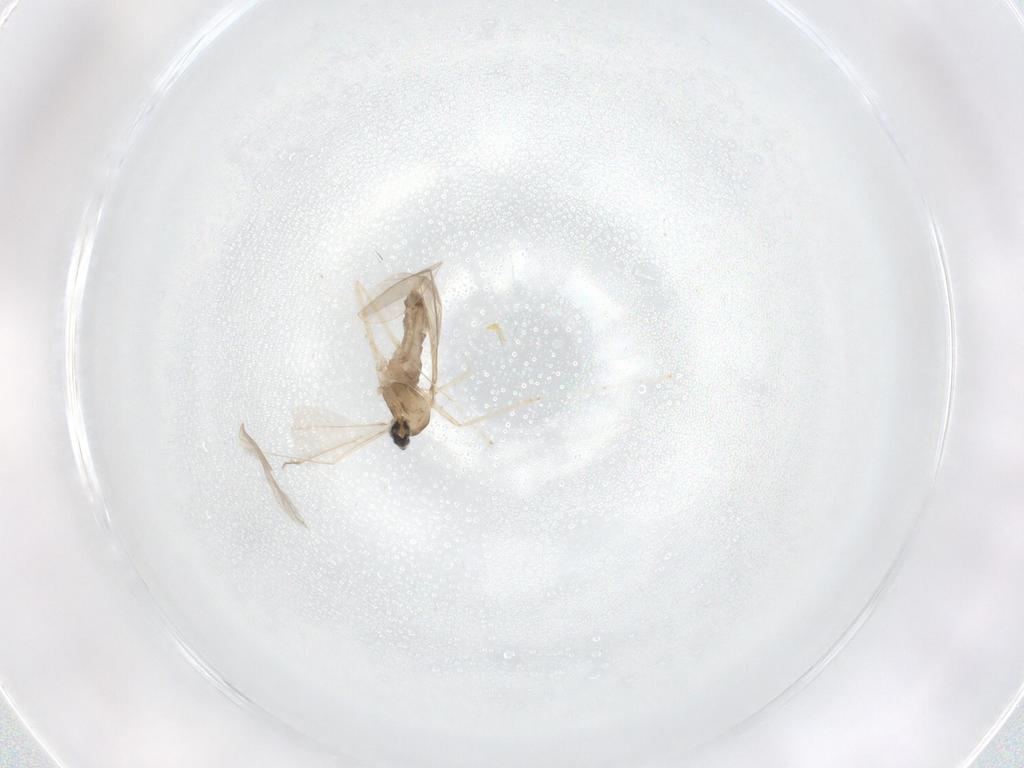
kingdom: Animalia
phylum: Arthropoda
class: Insecta
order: Diptera
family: Cecidomyiidae
